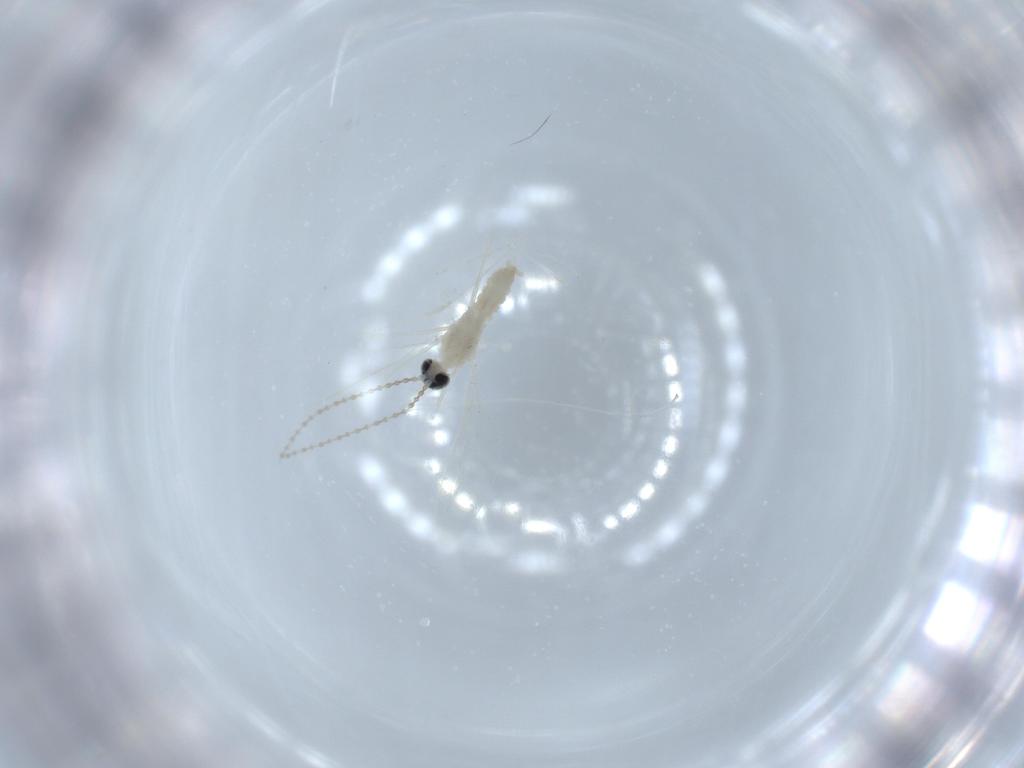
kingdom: Animalia
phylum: Arthropoda
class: Insecta
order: Diptera
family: Cecidomyiidae
